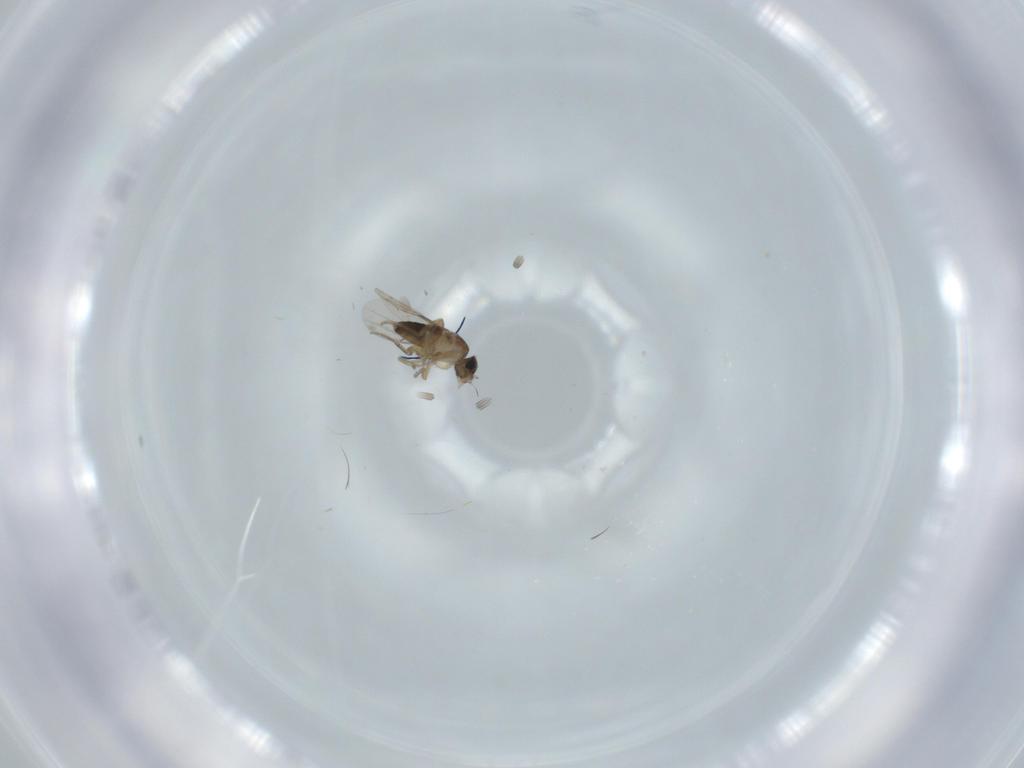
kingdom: Animalia
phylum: Arthropoda
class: Insecta
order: Diptera
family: Phoridae
